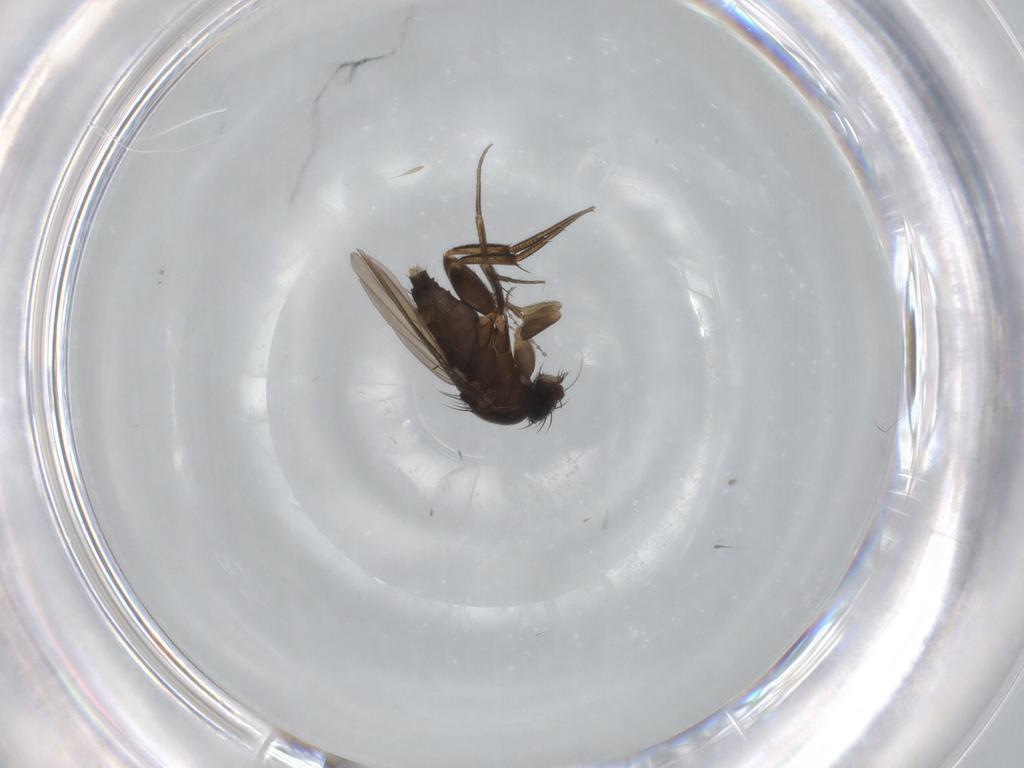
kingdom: Animalia
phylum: Arthropoda
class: Insecta
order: Diptera
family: Phoridae
